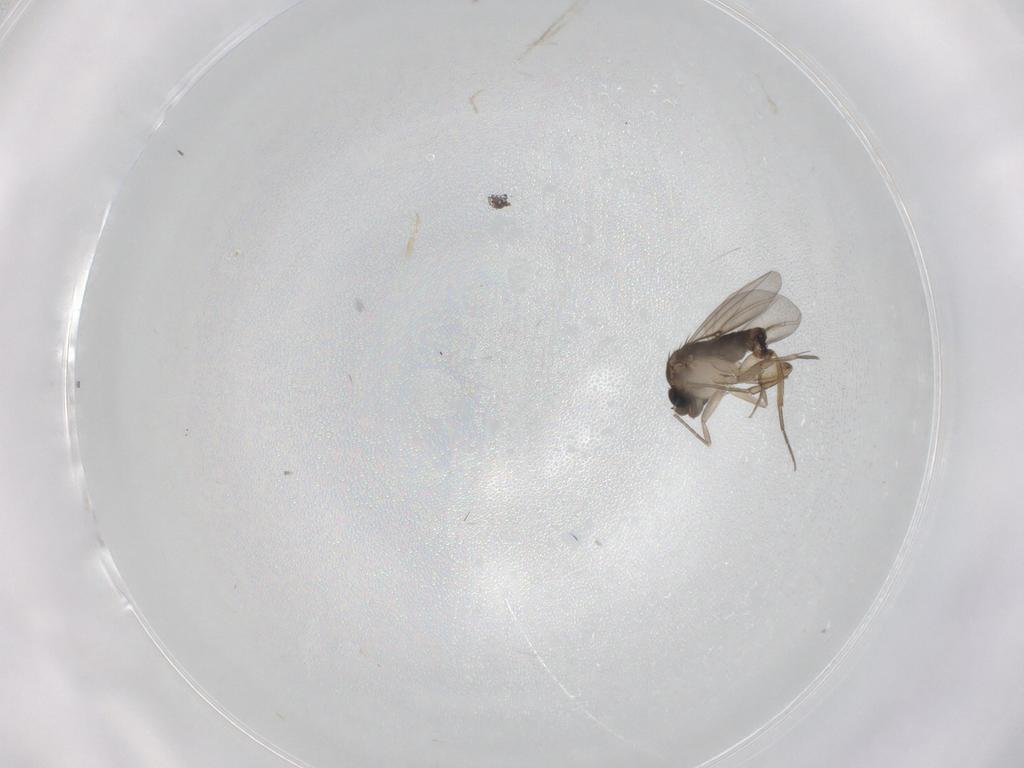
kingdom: Animalia
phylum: Arthropoda
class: Insecta
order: Diptera
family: Phoridae
